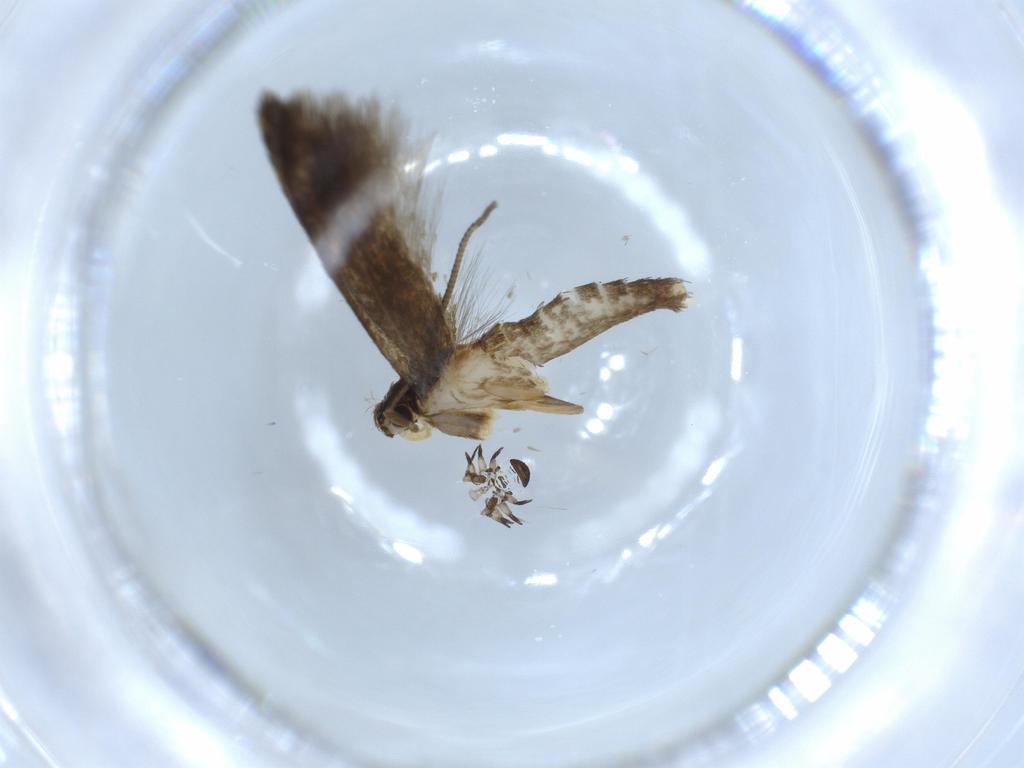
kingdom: Animalia
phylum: Arthropoda
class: Insecta
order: Lepidoptera
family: Tineidae
